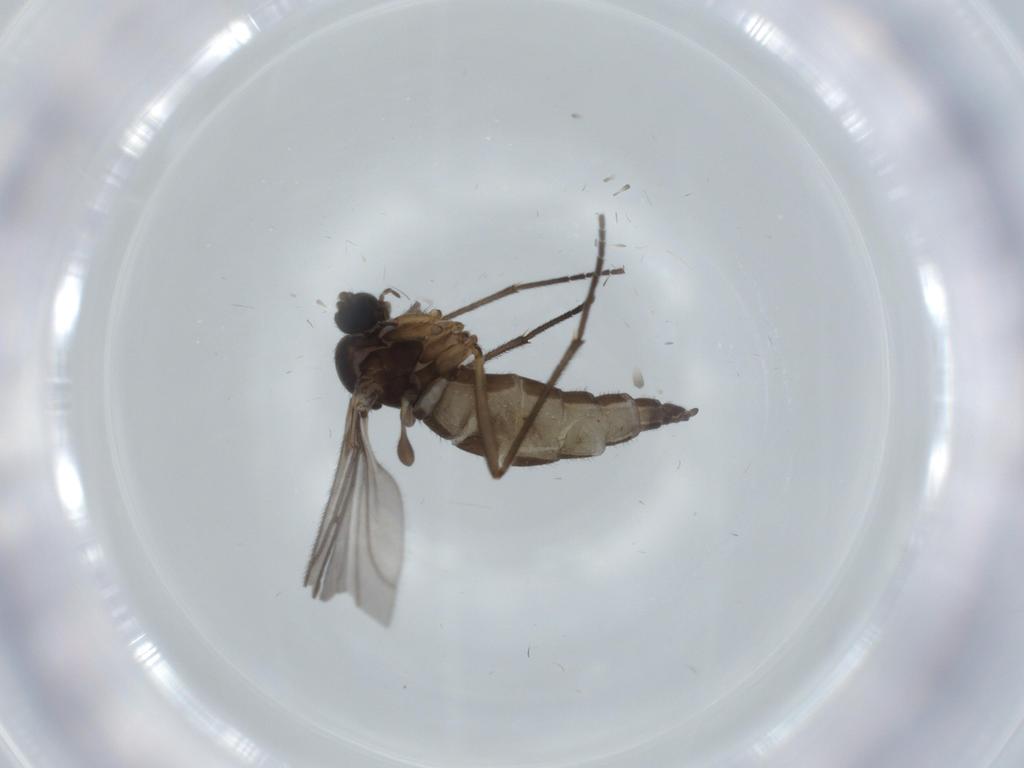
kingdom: Animalia
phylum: Arthropoda
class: Insecta
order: Diptera
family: Sciaridae
